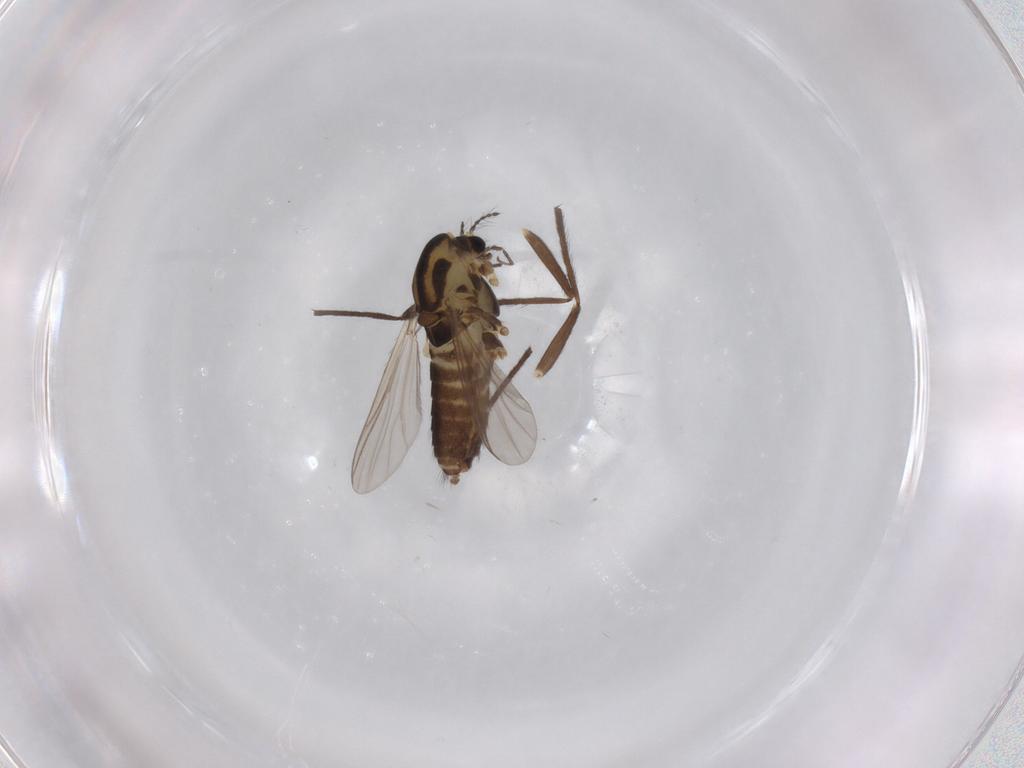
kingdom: Animalia
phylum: Arthropoda
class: Insecta
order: Diptera
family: Chironomidae
